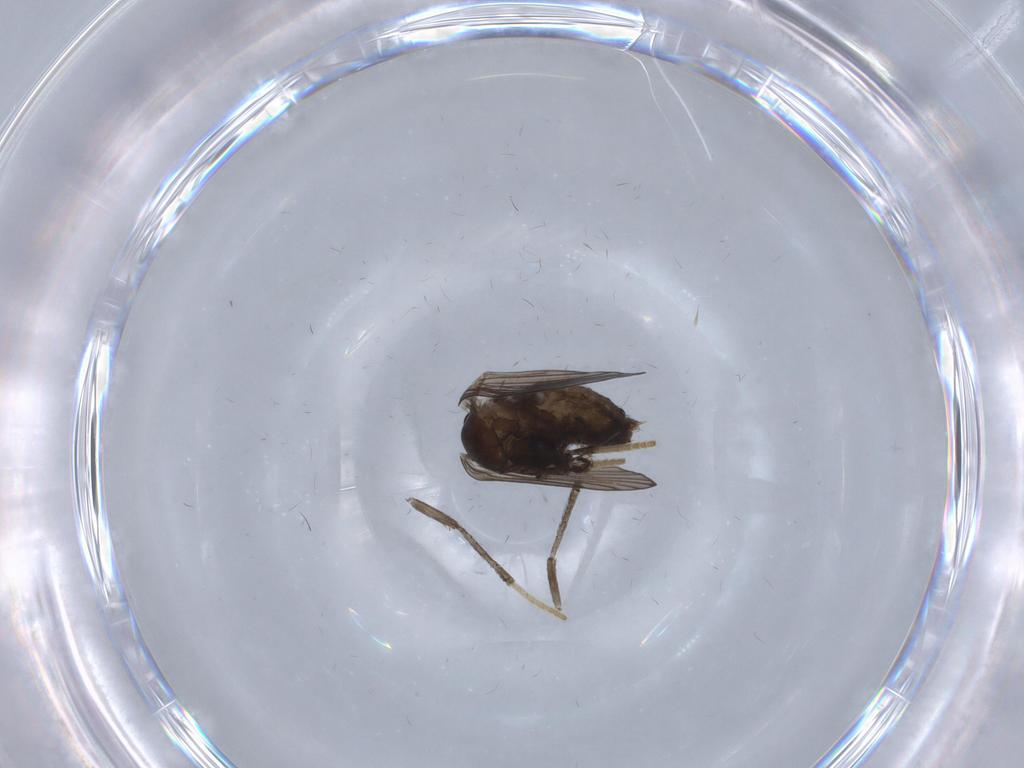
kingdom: Animalia
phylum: Arthropoda
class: Insecta
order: Diptera
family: Psychodidae
